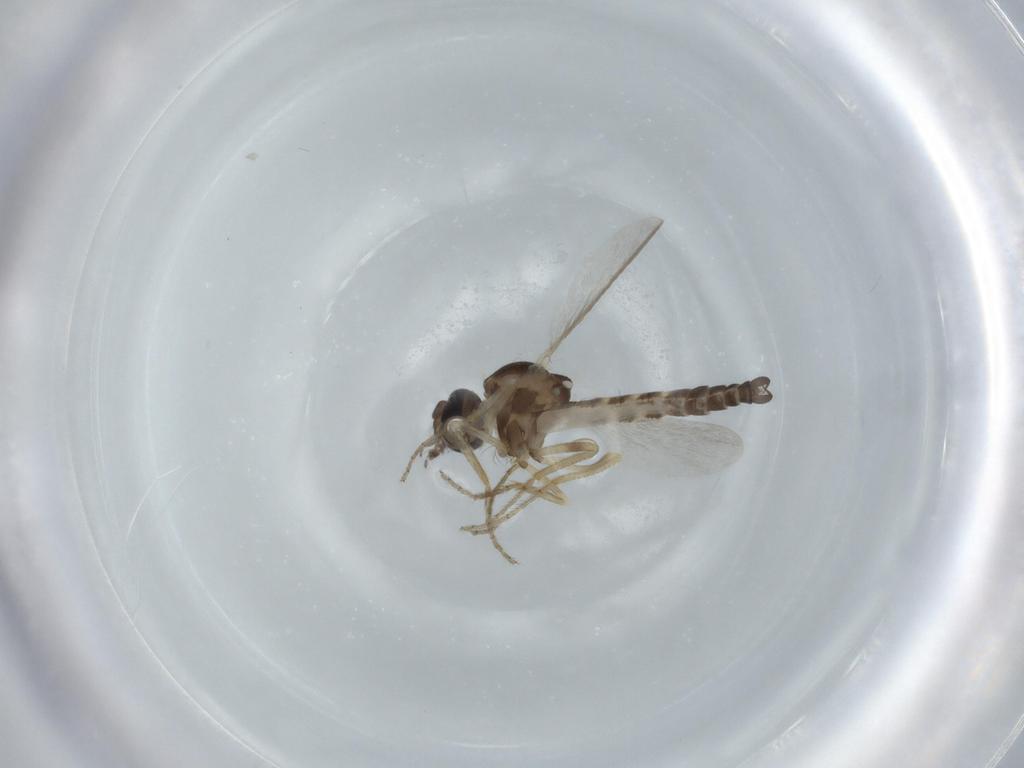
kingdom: Animalia
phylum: Arthropoda
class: Insecta
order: Diptera
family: Ceratopogonidae
